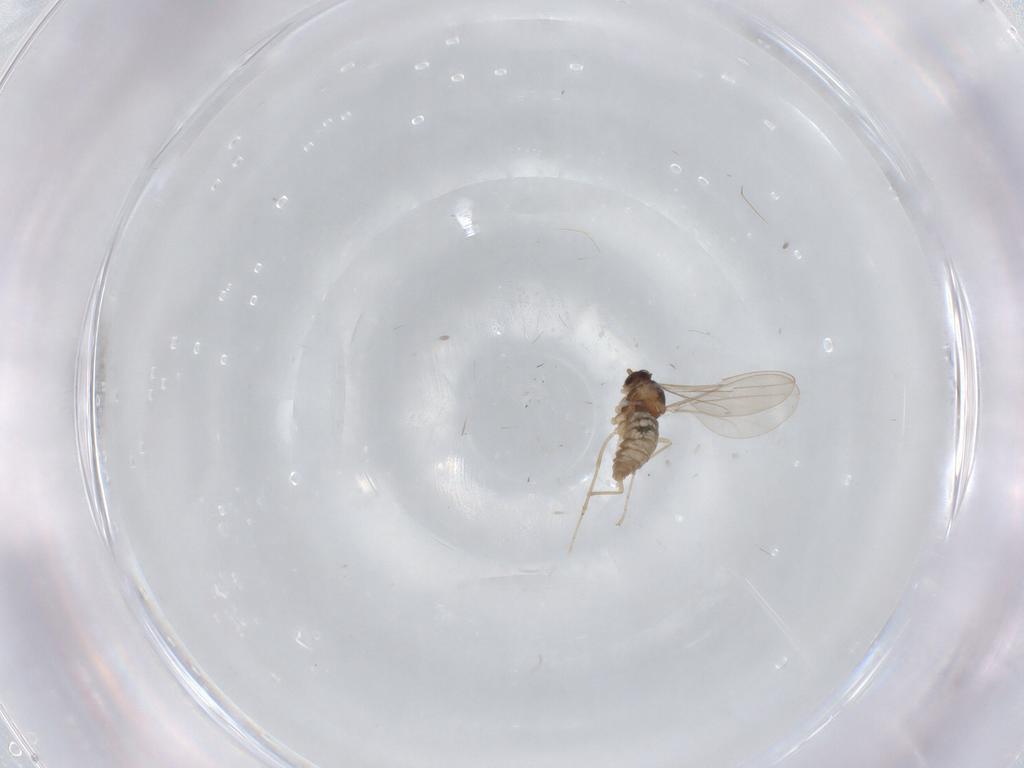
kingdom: Animalia
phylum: Arthropoda
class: Insecta
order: Diptera
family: Cecidomyiidae
